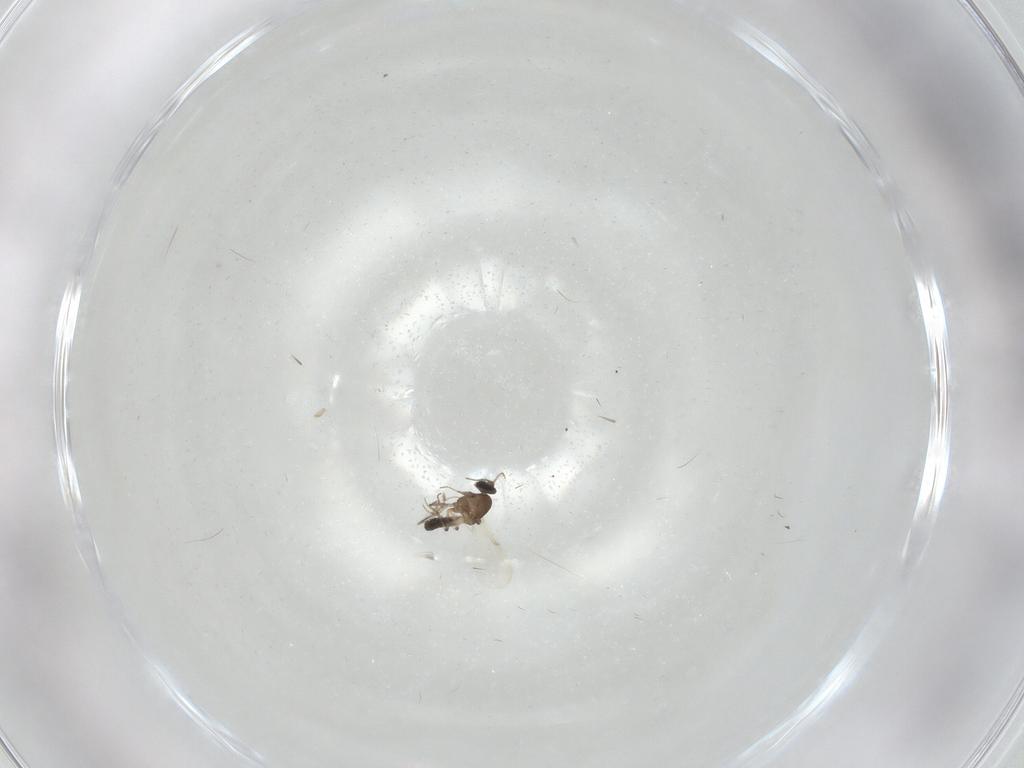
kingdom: Animalia
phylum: Arthropoda
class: Insecta
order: Diptera
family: Ceratopogonidae
